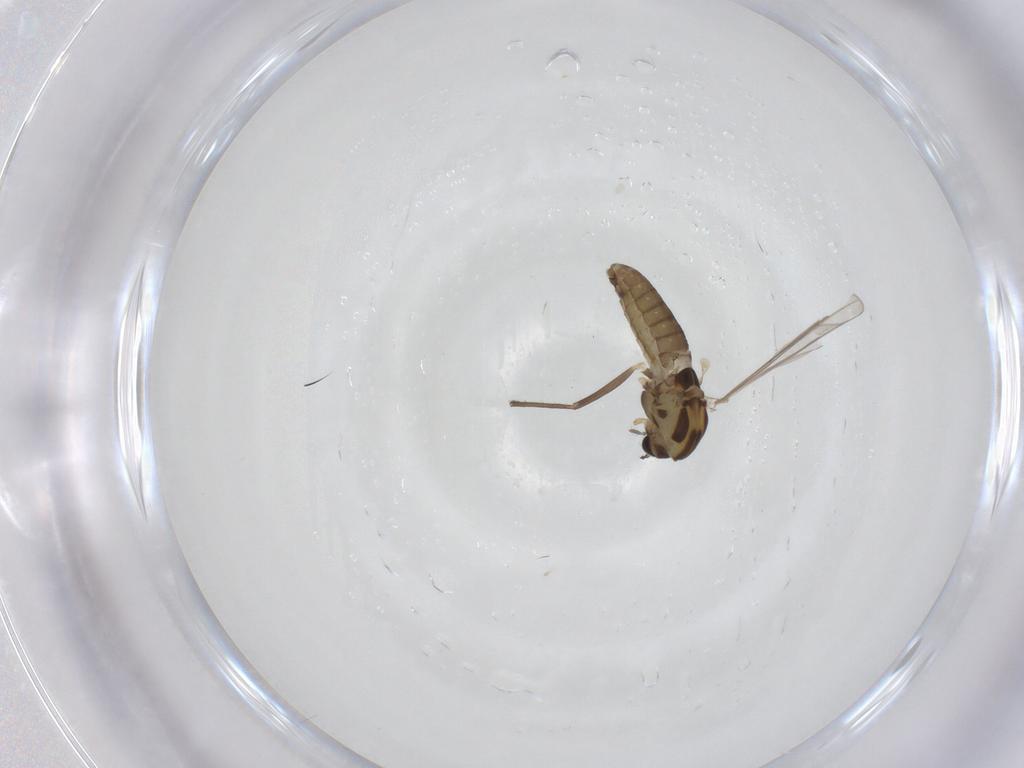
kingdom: Animalia
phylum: Arthropoda
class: Insecta
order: Diptera
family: Chironomidae
